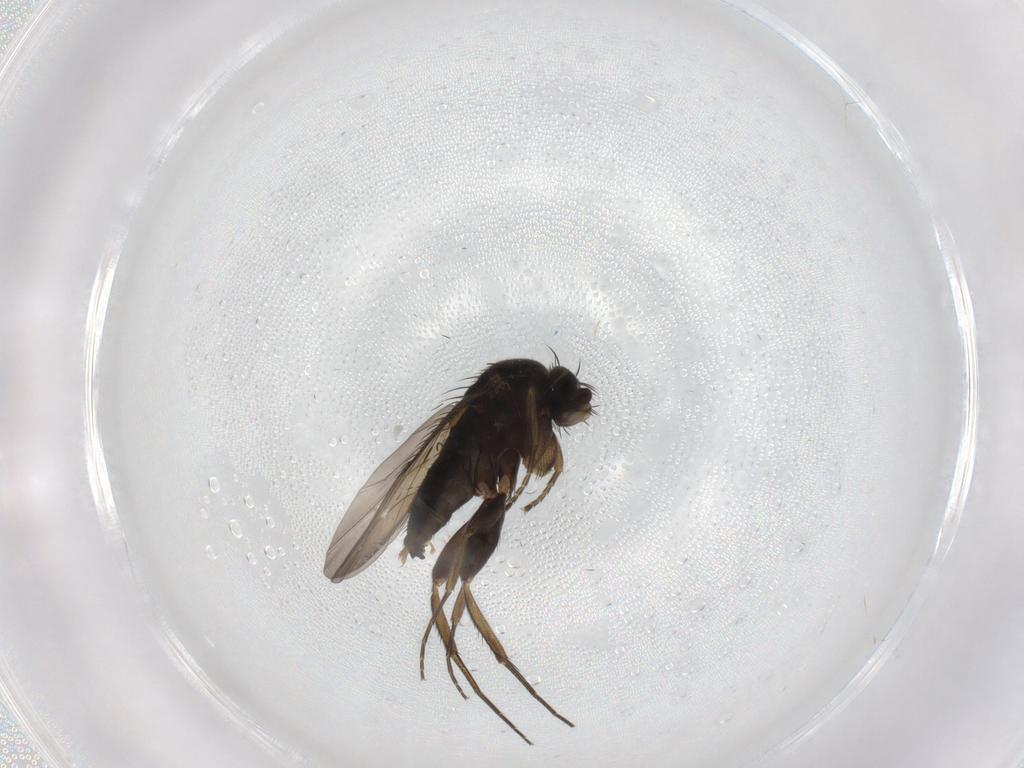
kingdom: Animalia
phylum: Arthropoda
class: Insecta
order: Diptera
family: Phoridae
